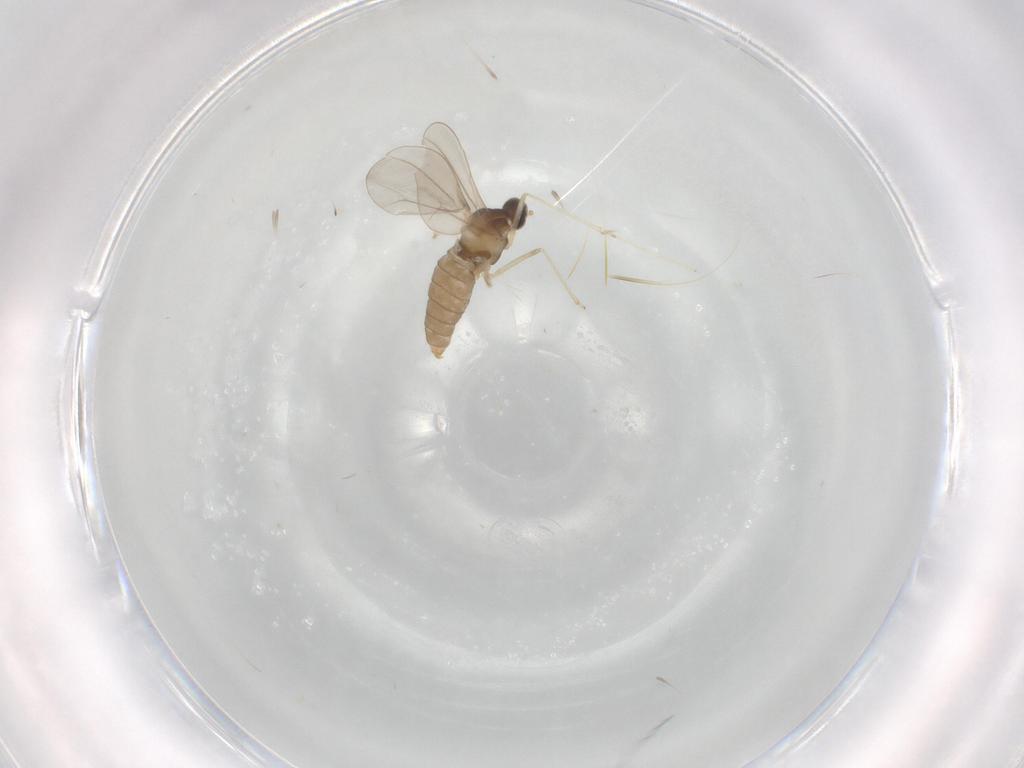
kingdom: Animalia
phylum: Arthropoda
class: Insecta
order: Diptera
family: Cecidomyiidae
